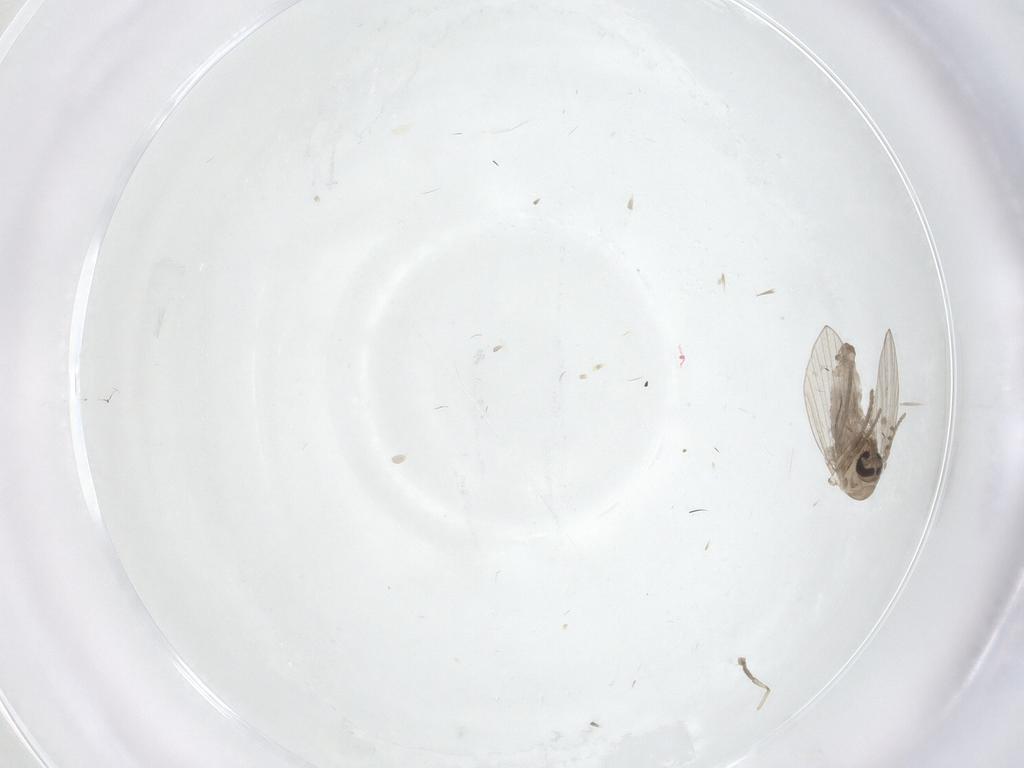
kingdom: Animalia
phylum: Arthropoda
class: Insecta
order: Diptera
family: Psychodidae
